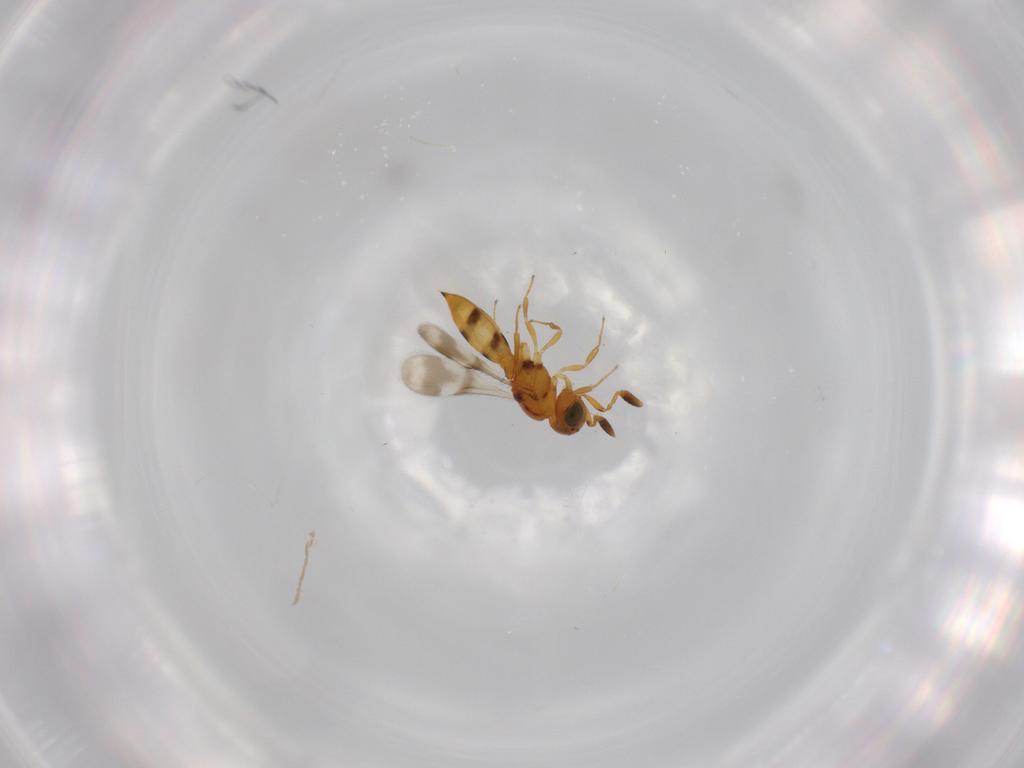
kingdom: Animalia
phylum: Arthropoda
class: Insecta
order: Hymenoptera
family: Scelionidae
